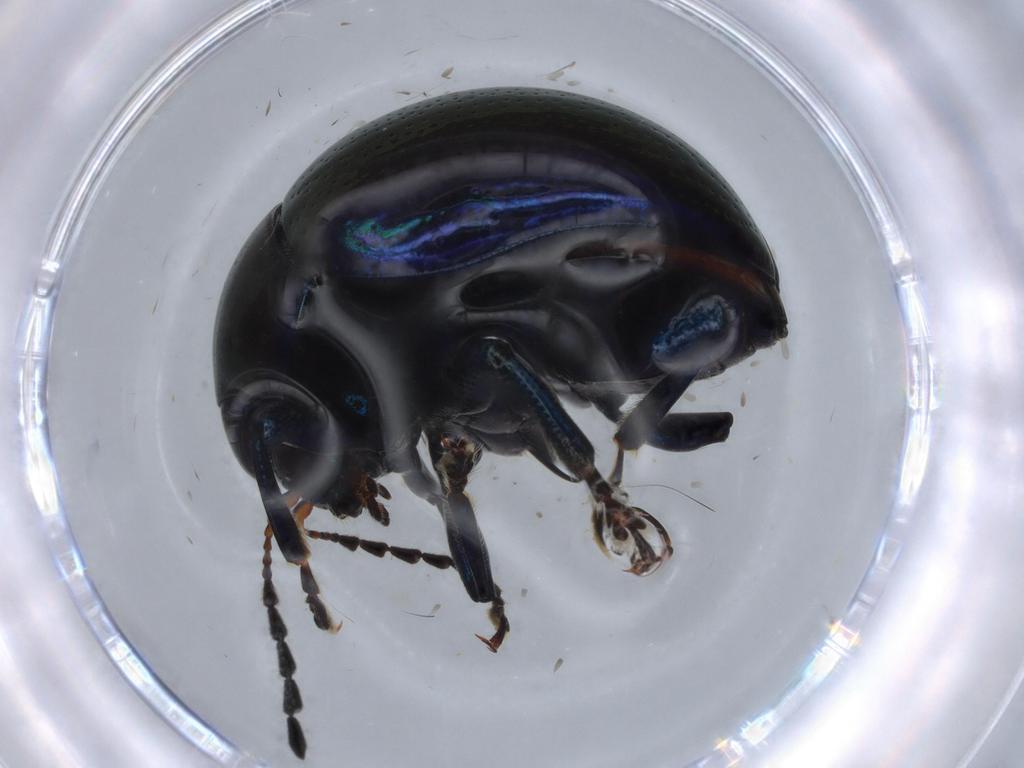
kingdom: Animalia
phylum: Arthropoda
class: Insecta
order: Coleoptera
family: Chrysomelidae
